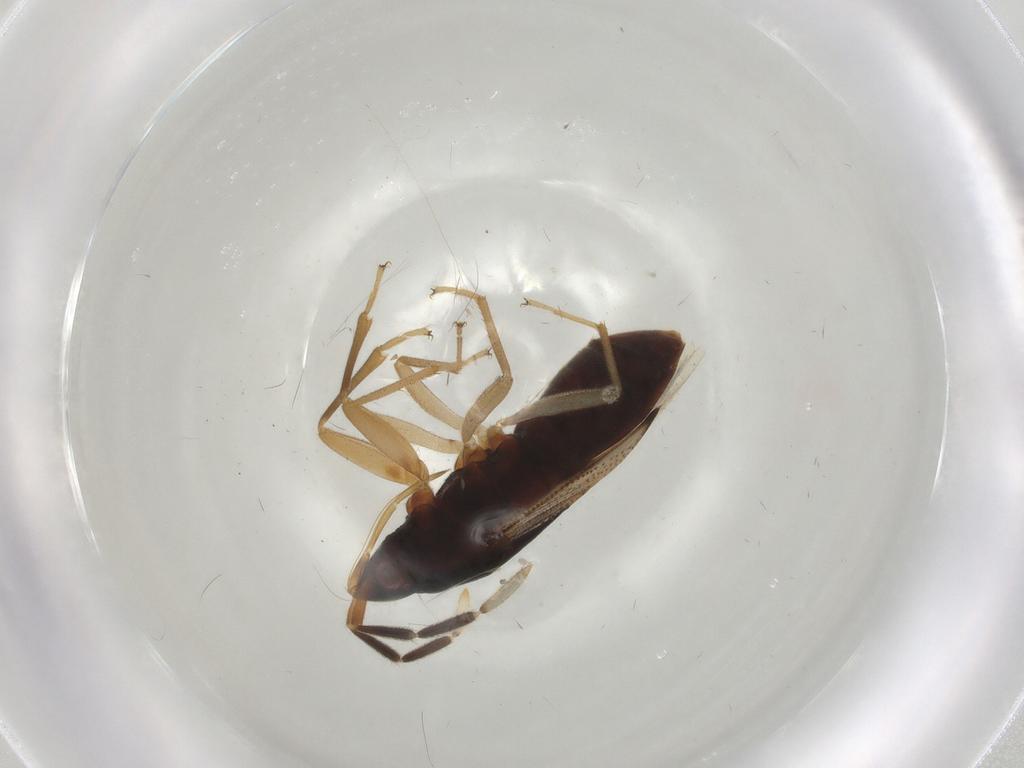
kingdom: Animalia
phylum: Arthropoda
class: Insecta
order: Hemiptera
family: Rhyparochromidae
